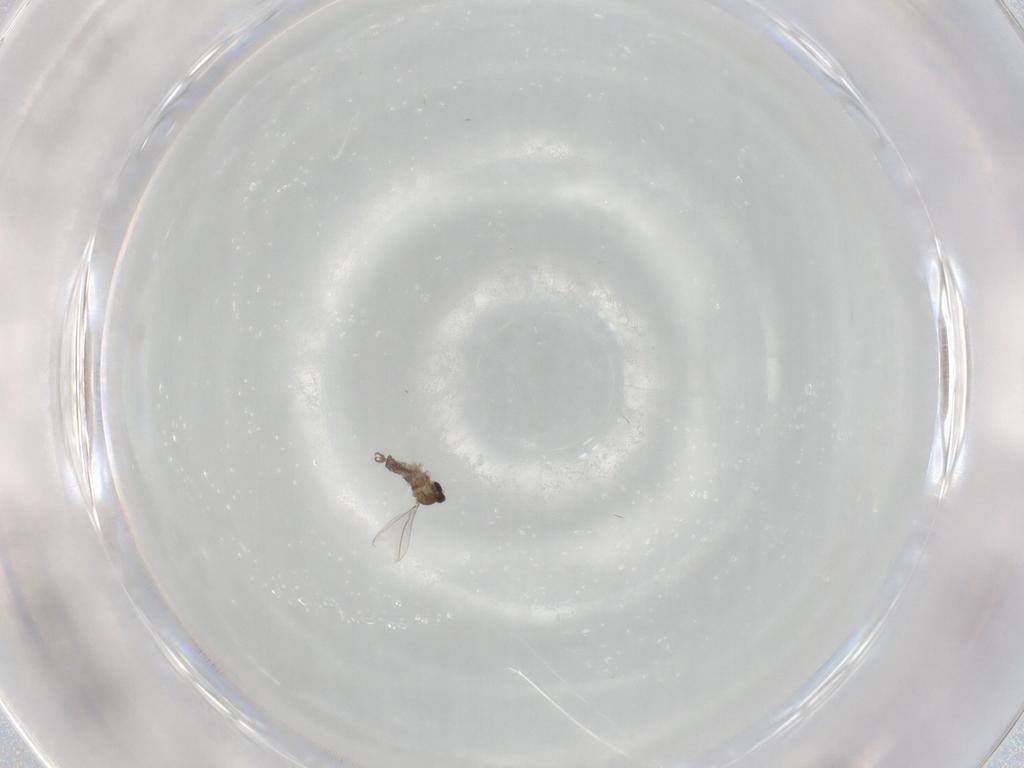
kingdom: Animalia
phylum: Arthropoda
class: Insecta
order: Diptera
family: Cecidomyiidae
